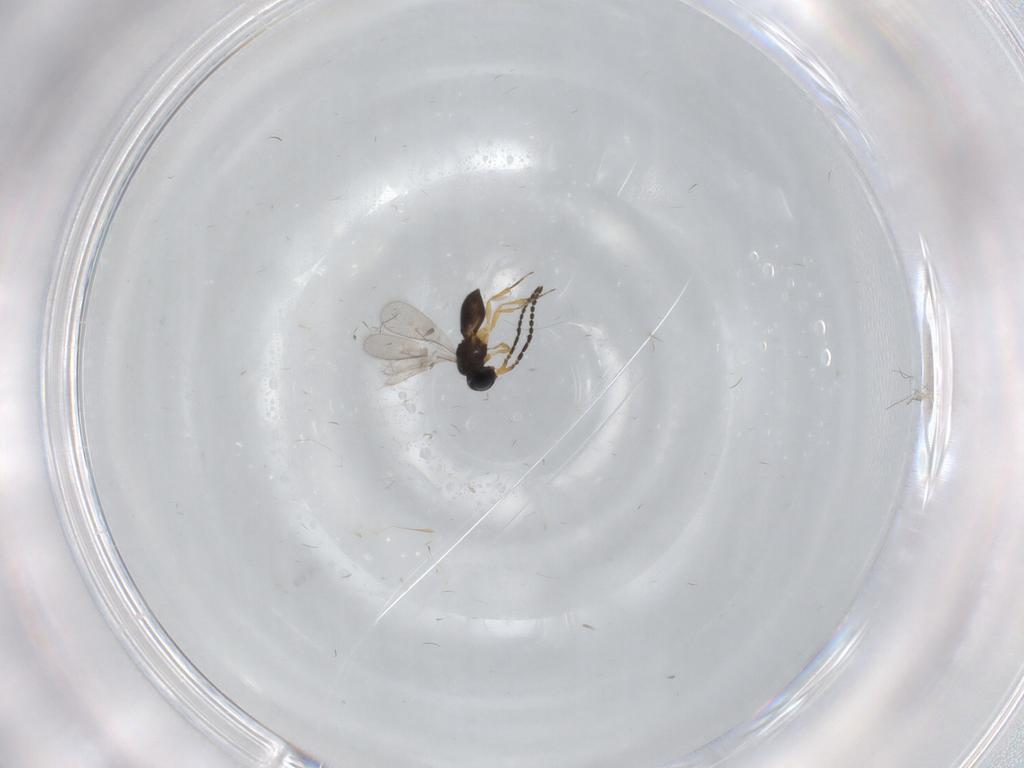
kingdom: Animalia
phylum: Arthropoda
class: Insecta
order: Hymenoptera
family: Scelionidae
